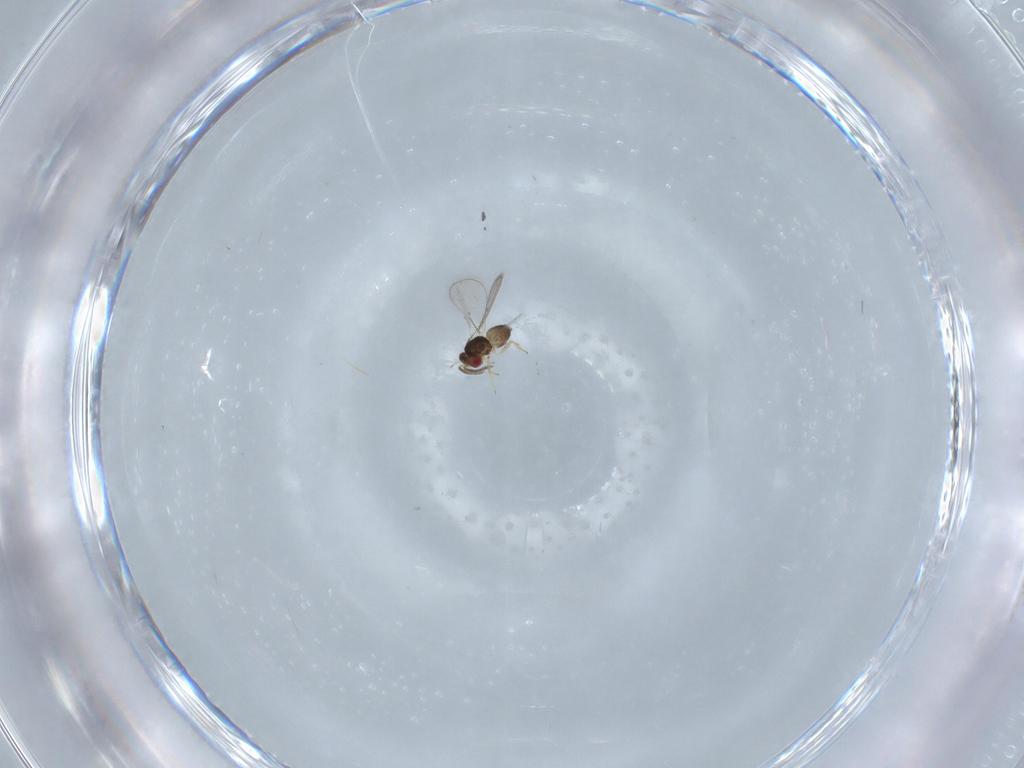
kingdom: Animalia
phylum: Arthropoda
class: Insecta
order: Hymenoptera
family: Eulophidae
